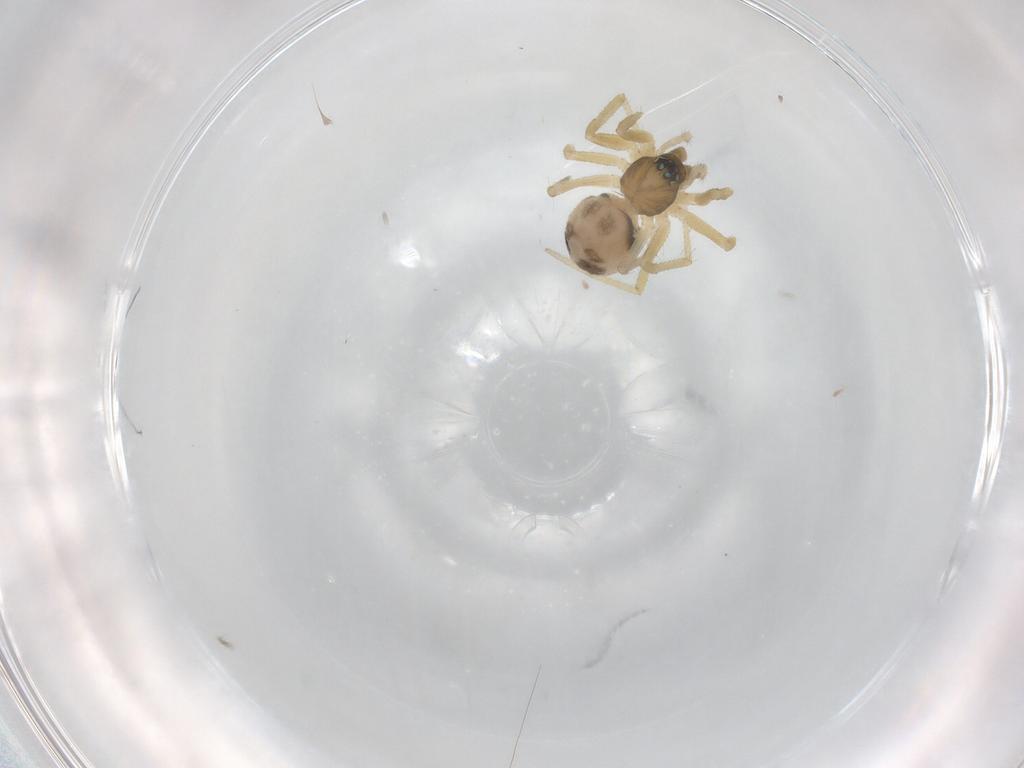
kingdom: Animalia
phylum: Arthropoda
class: Arachnida
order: Araneae
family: Linyphiidae
